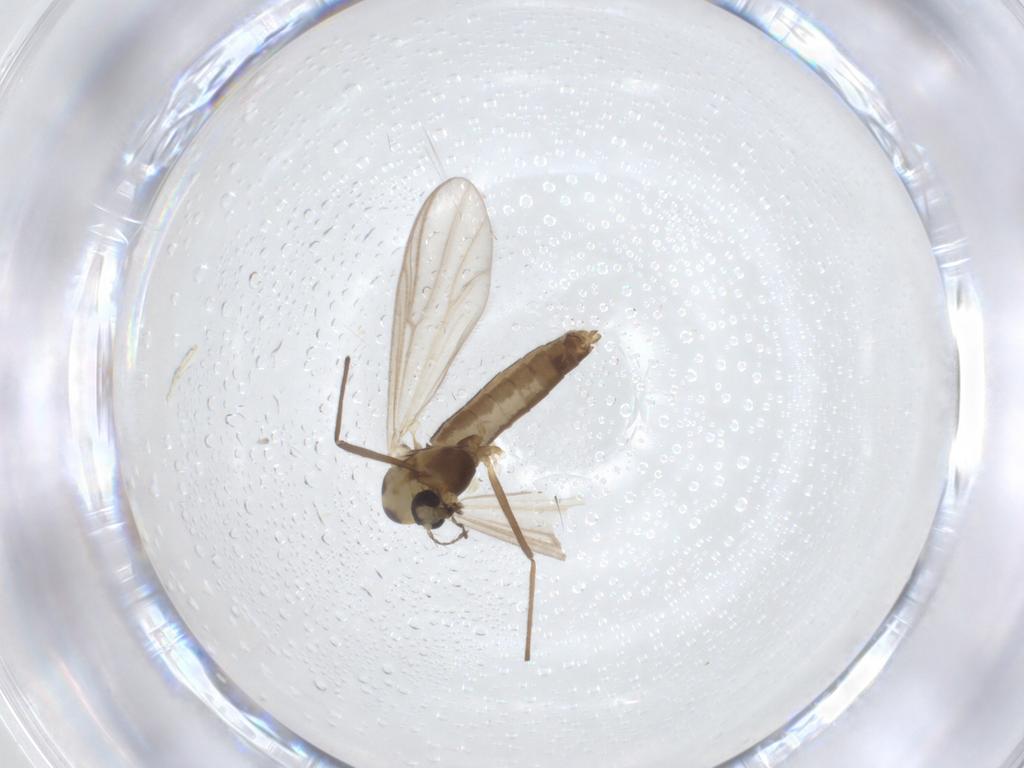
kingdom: Animalia
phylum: Arthropoda
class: Insecta
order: Diptera
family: Chironomidae
